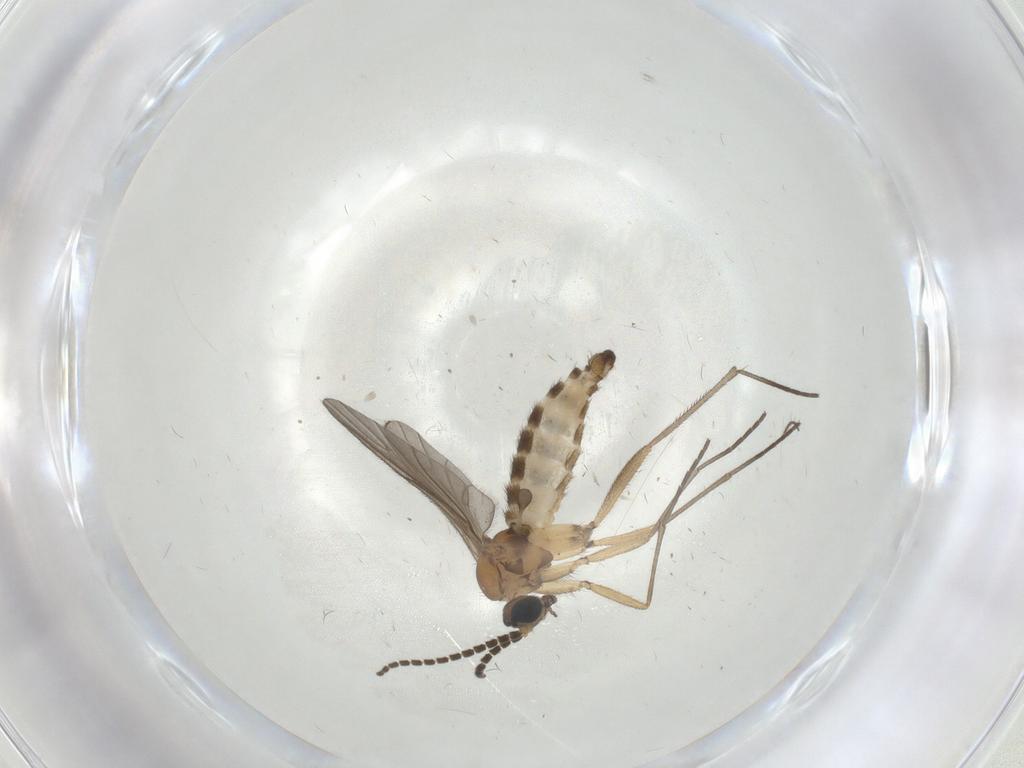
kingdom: Animalia
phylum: Arthropoda
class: Insecta
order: Diptera
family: Sciaridae
